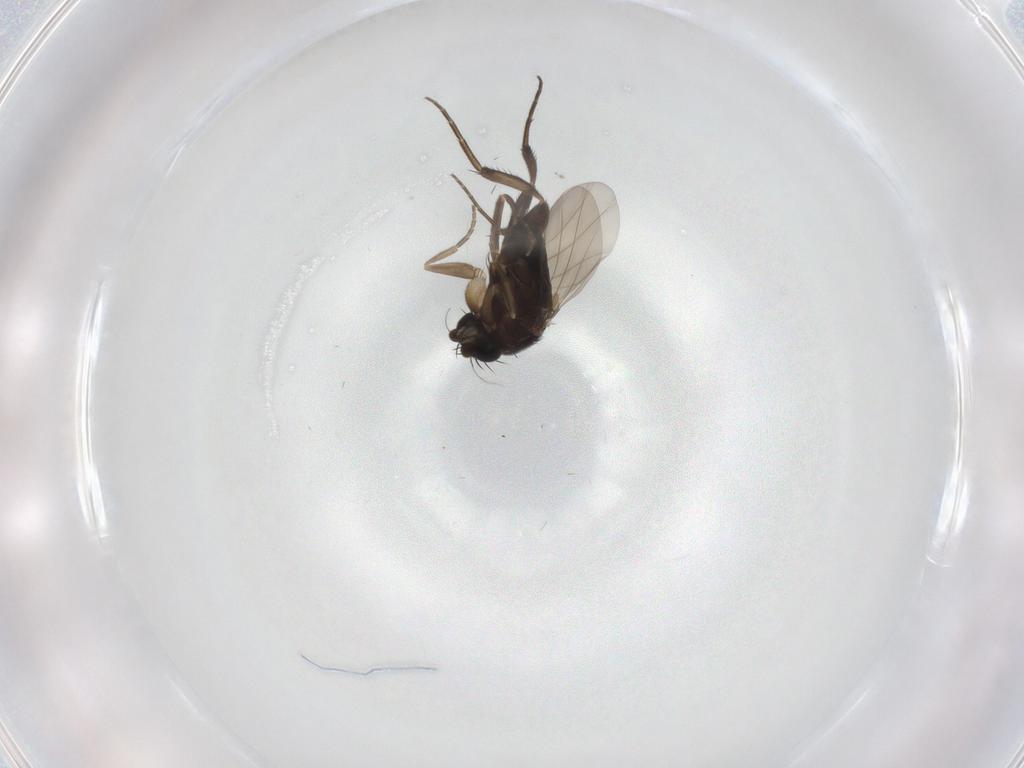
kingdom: Animalia
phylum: Arthropoda
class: Insecta
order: Diptera
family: Phoridae
